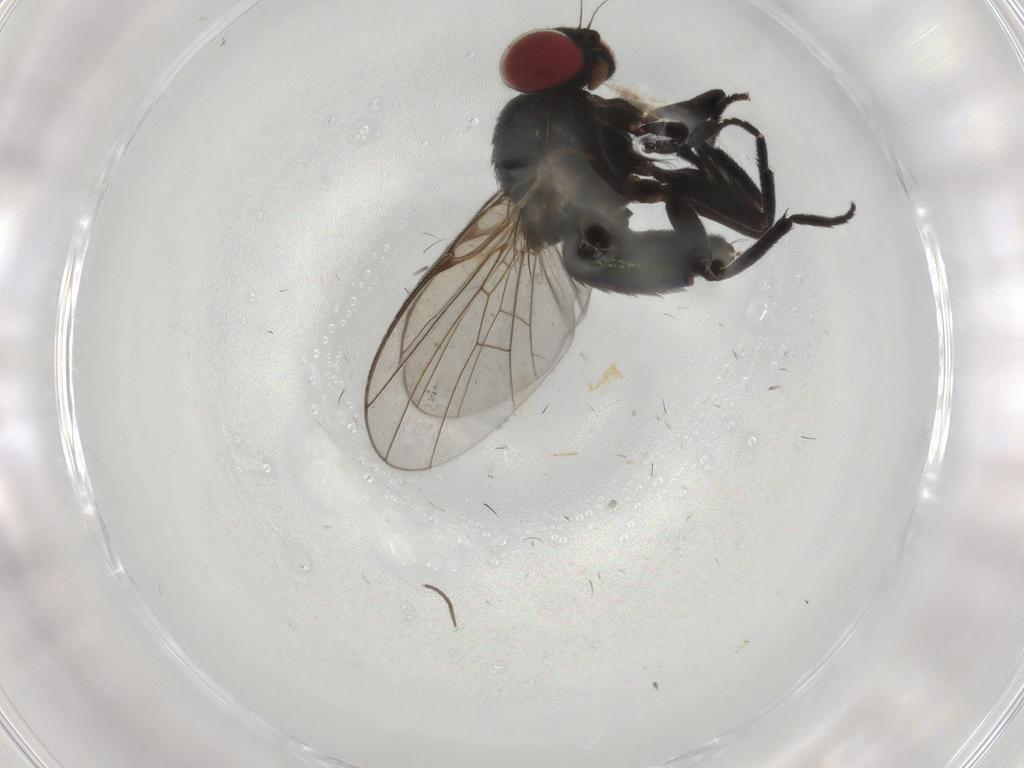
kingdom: Animalia
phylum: Arthropoda
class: Insecta
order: Diptera
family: Agromyzidae
